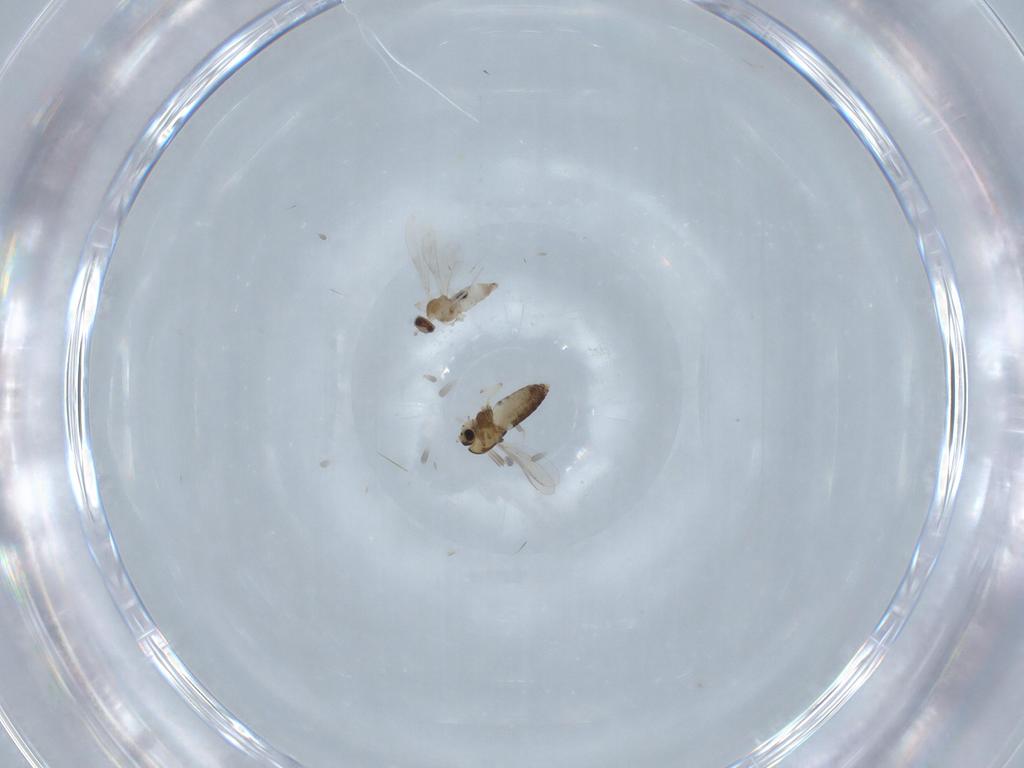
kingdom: Animalia
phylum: Arthropoda
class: Insecta
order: Diptera
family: Chironomidae
